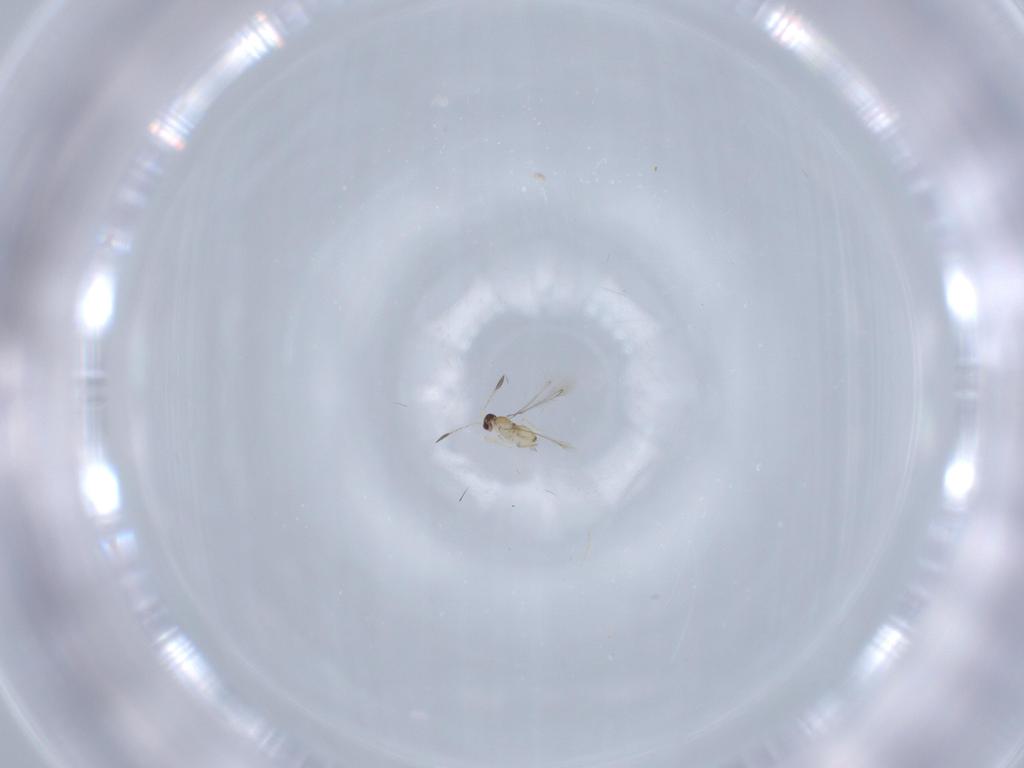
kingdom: Animalia
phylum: Arthropoda
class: Insecta
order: Hymenoptera
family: Mymaridae
